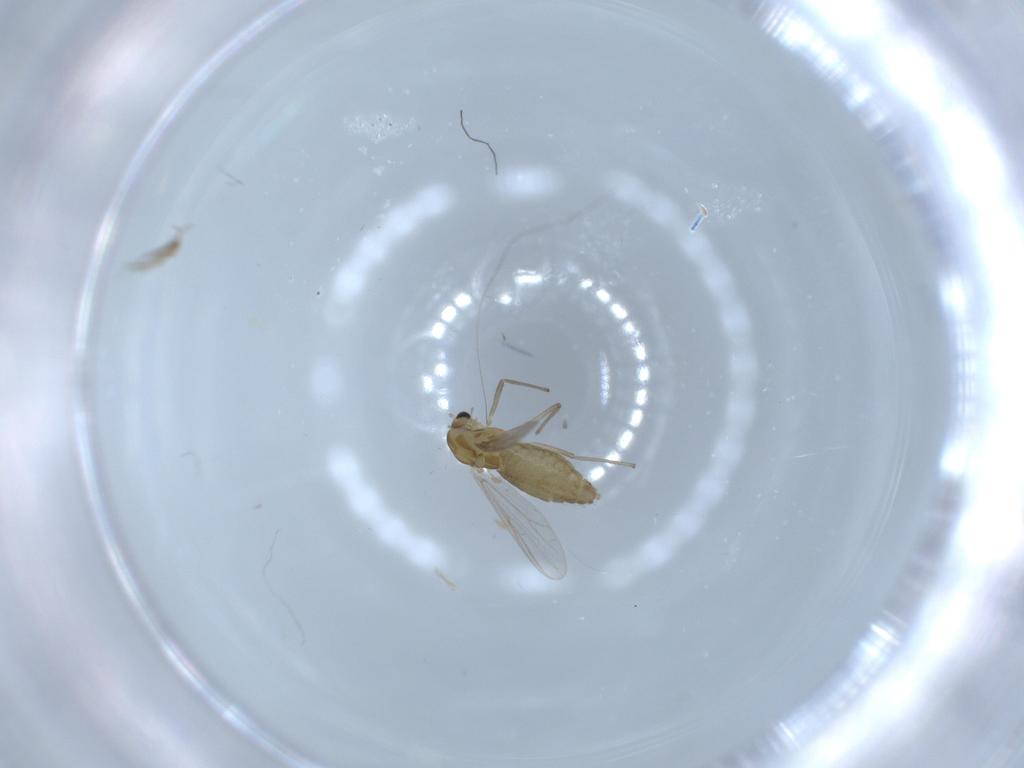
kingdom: Animalia
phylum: Arthropoda
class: Insecta
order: Diptera
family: Chironomidae
